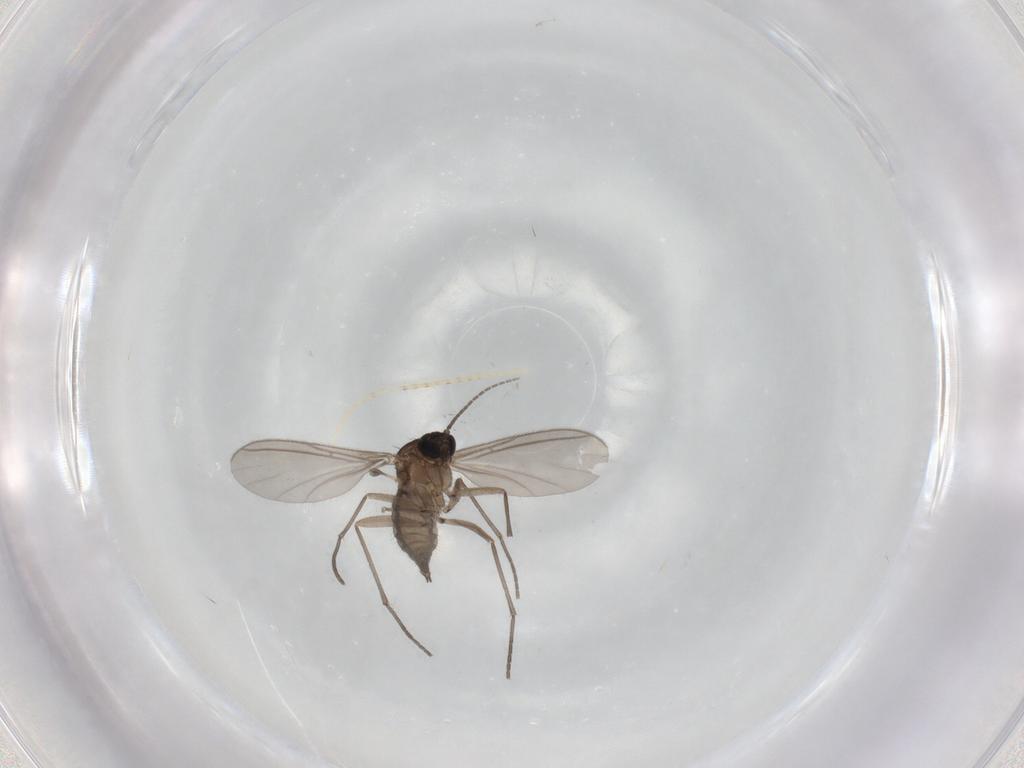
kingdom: Animalia
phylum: Arthropoda
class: Insecta
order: Diptera
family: Sciaridae
